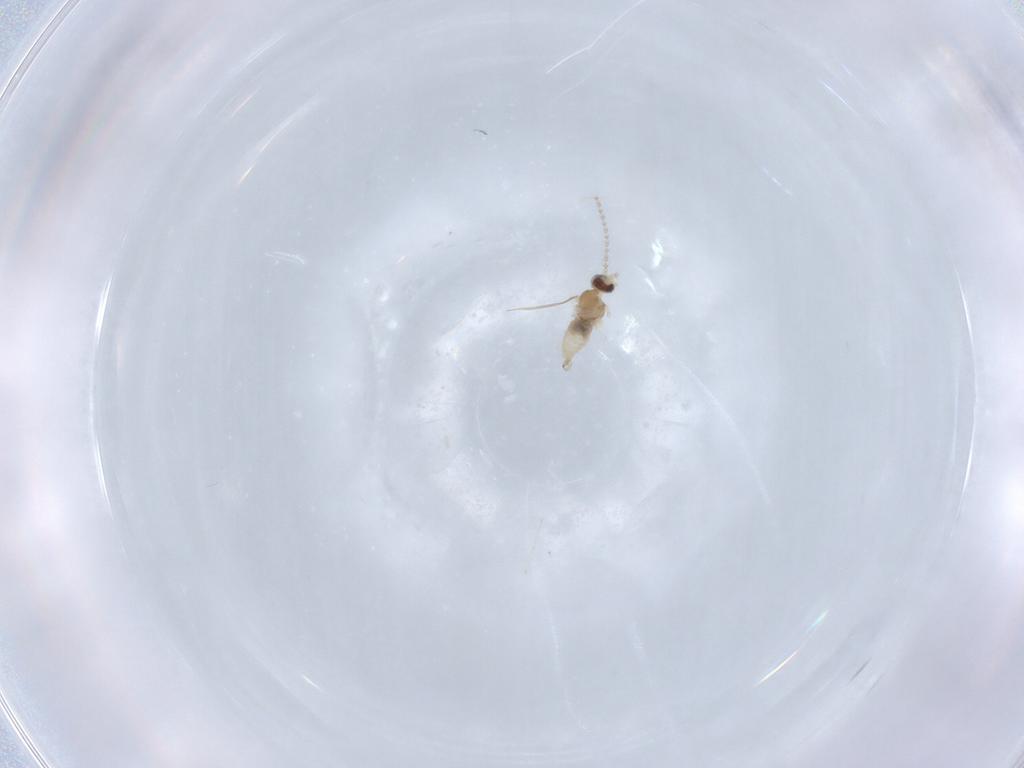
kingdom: Animalia
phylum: Arthropoda
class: Insecta
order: Diptera
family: Cecidomyiidae
